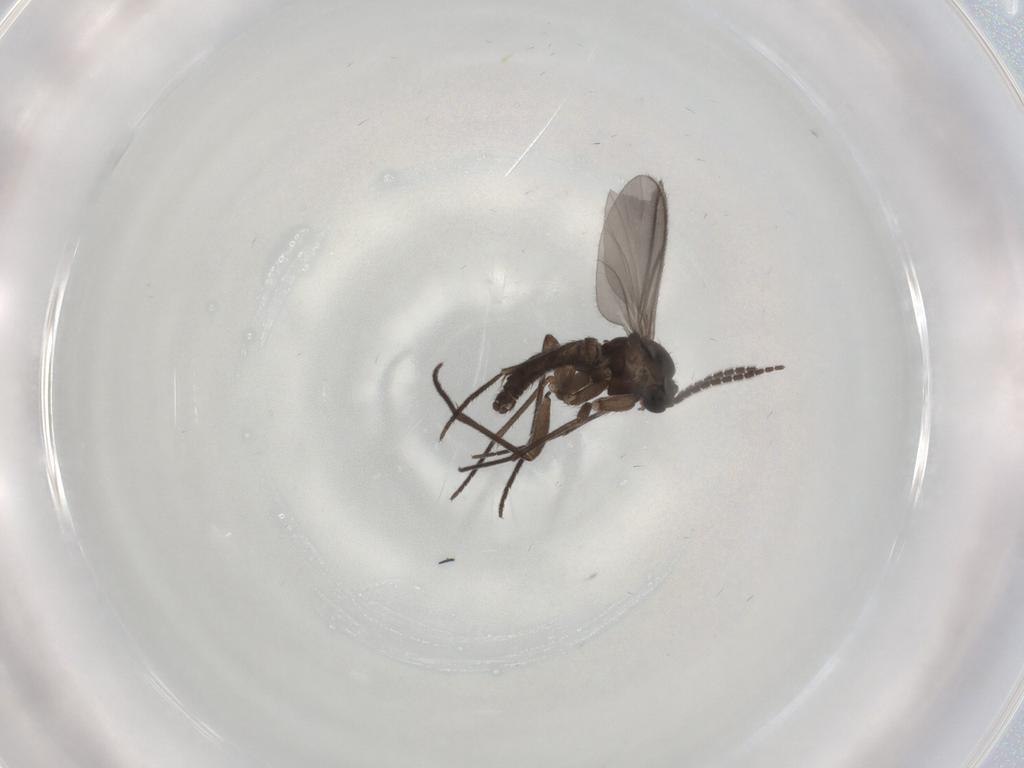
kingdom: Animalia
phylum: Arthropoda
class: Insecta
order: Diptera
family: Sciaridae
